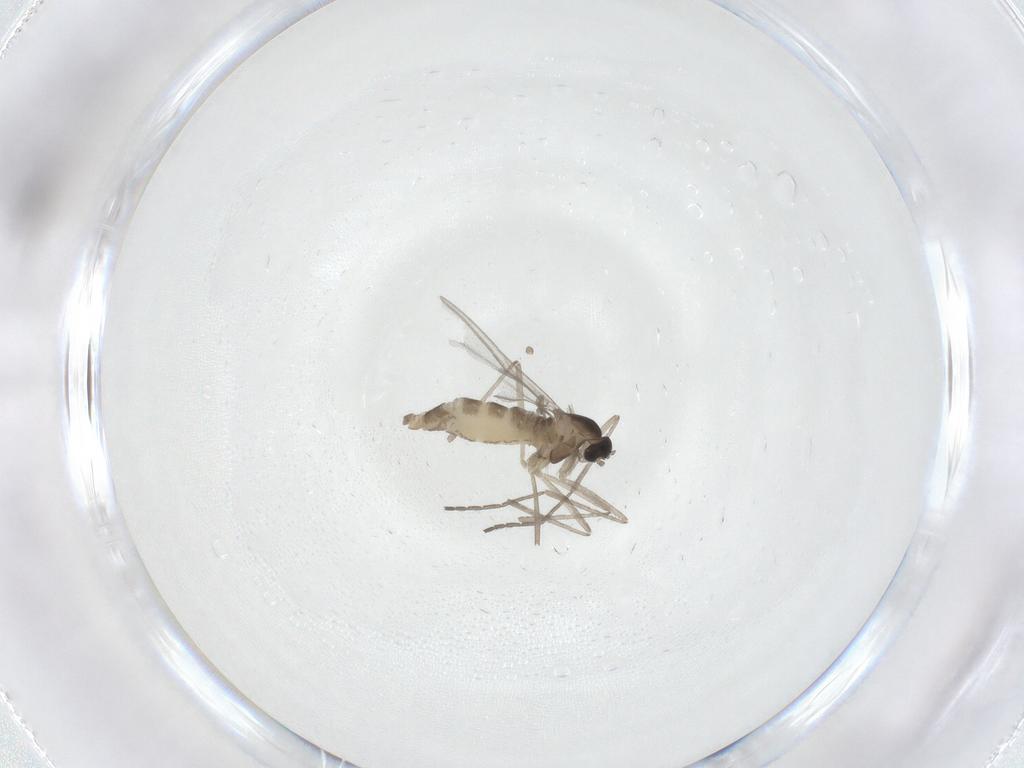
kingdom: Animalia
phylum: Arthropoda
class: Insecta
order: Diptera
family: Cecidomyiidae
